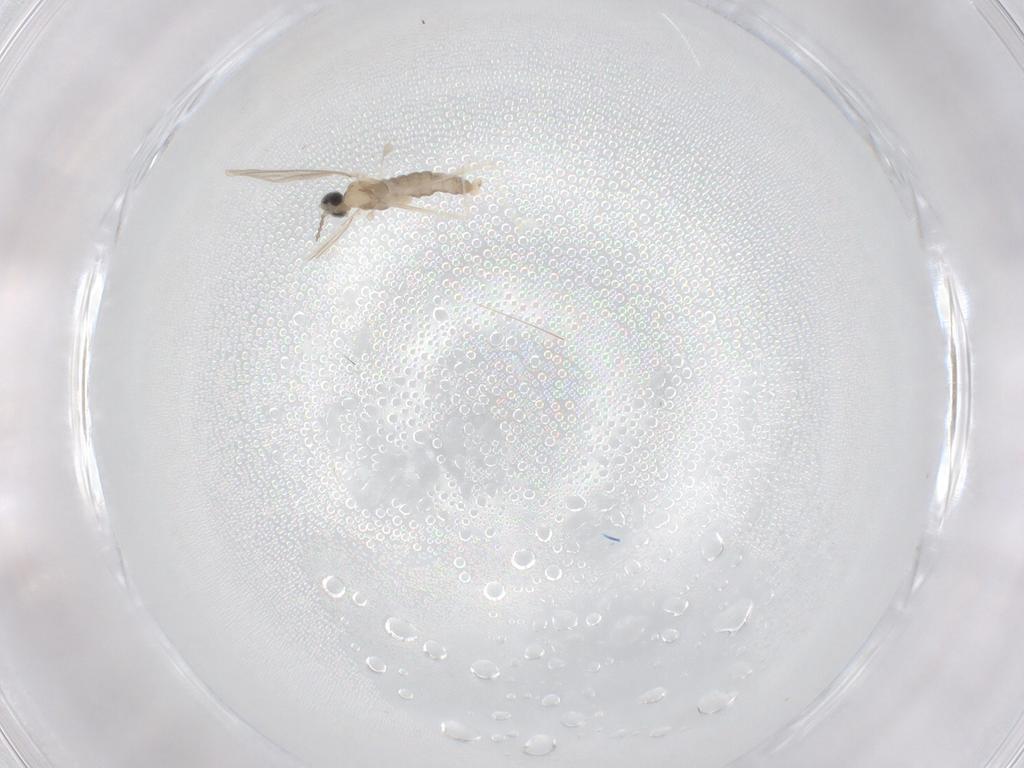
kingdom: Animalia
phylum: Arthropoda
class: Insecta
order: Diptera
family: Cecidomyiidae
